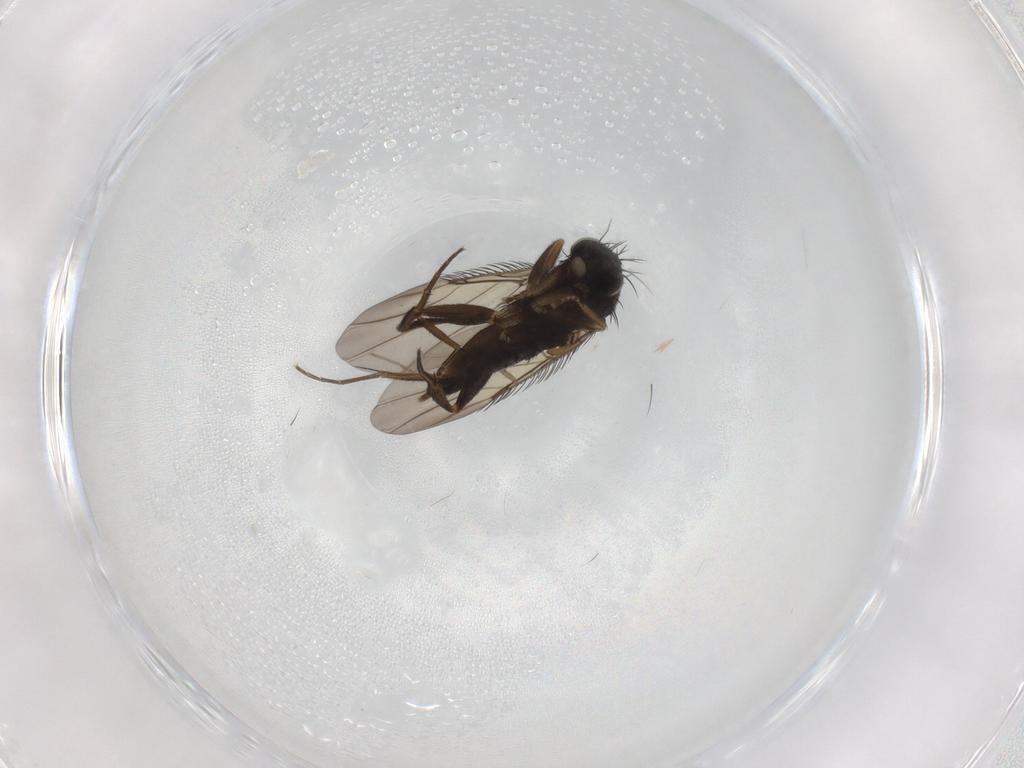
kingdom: Animalia
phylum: Arthropoda
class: Insecta
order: Diptera
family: Phoridae
